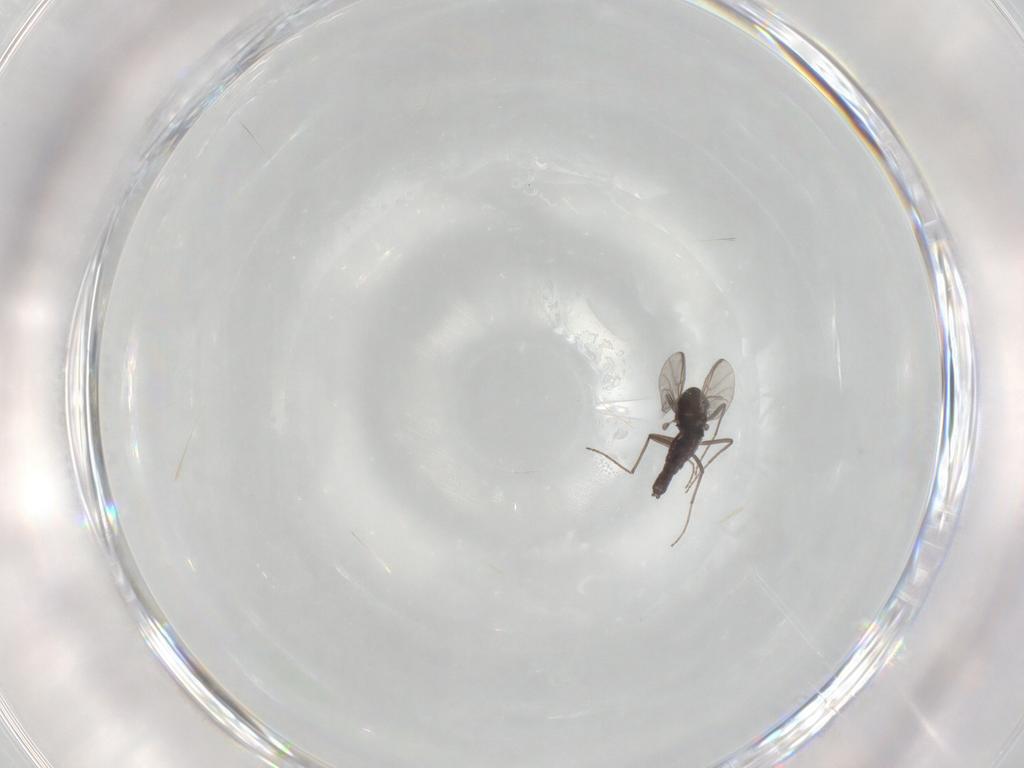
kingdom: Animalia
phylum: Arthropoda
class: Insecta
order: Diptera
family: Chironomidae
